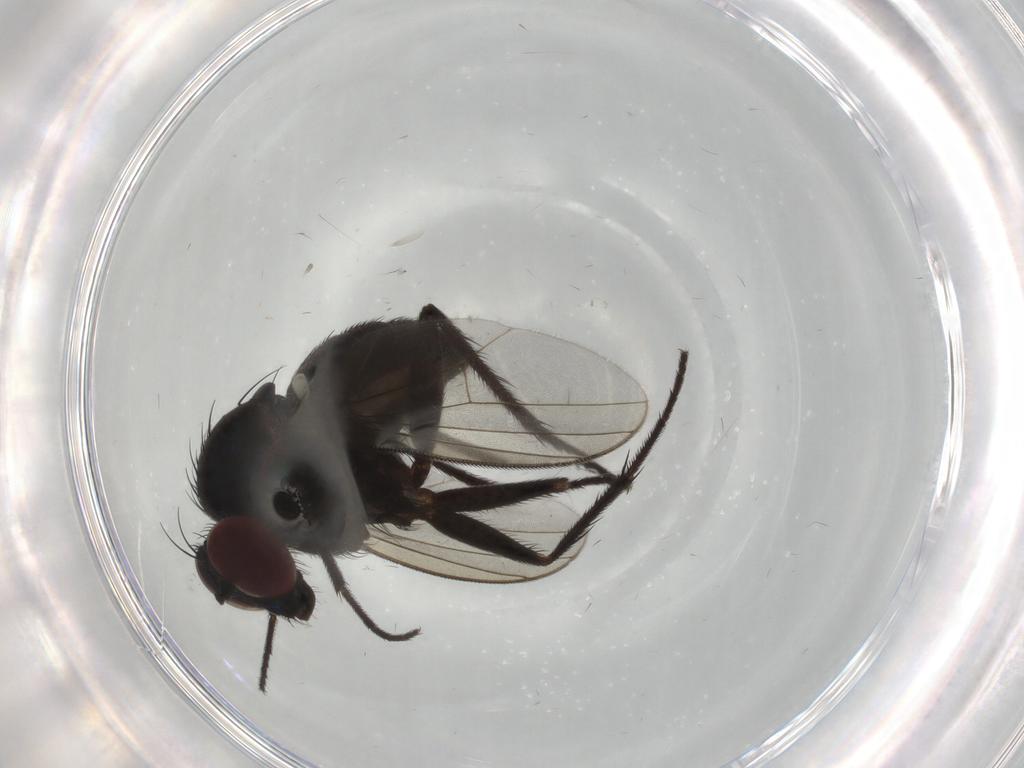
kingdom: Animalia
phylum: Arthropoda
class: Insecta
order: Diptera
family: Dolichopodidae
